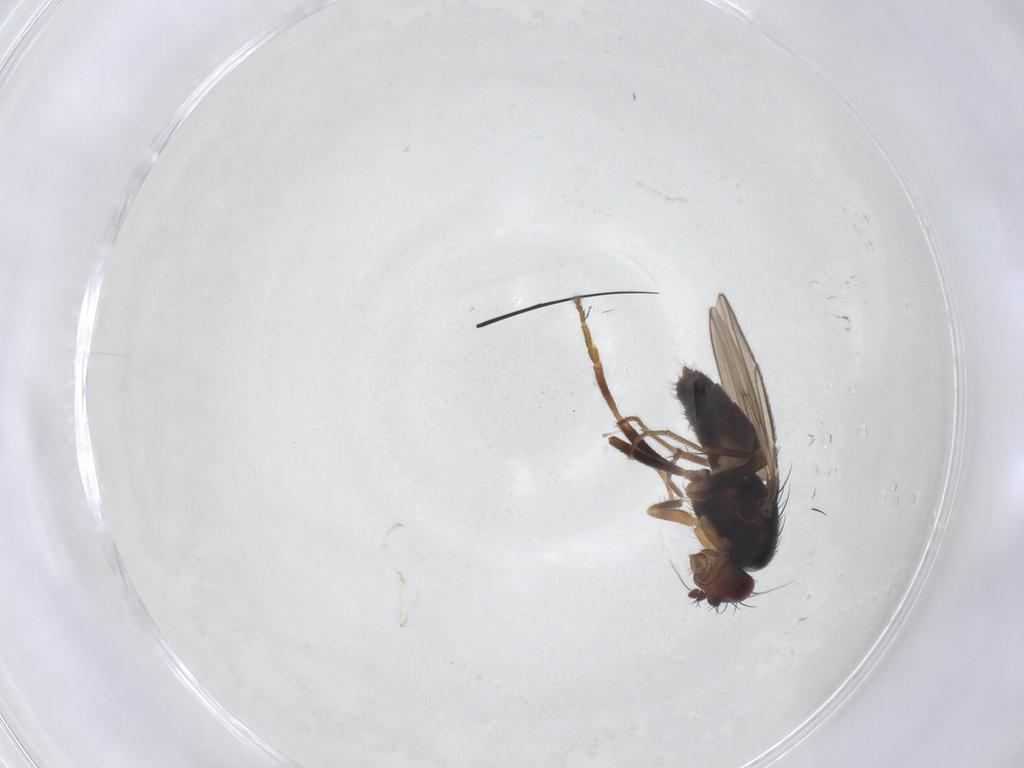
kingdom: Animalia
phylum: Arthropoda
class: Insecta
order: Diptera
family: Sphaeroceridae
